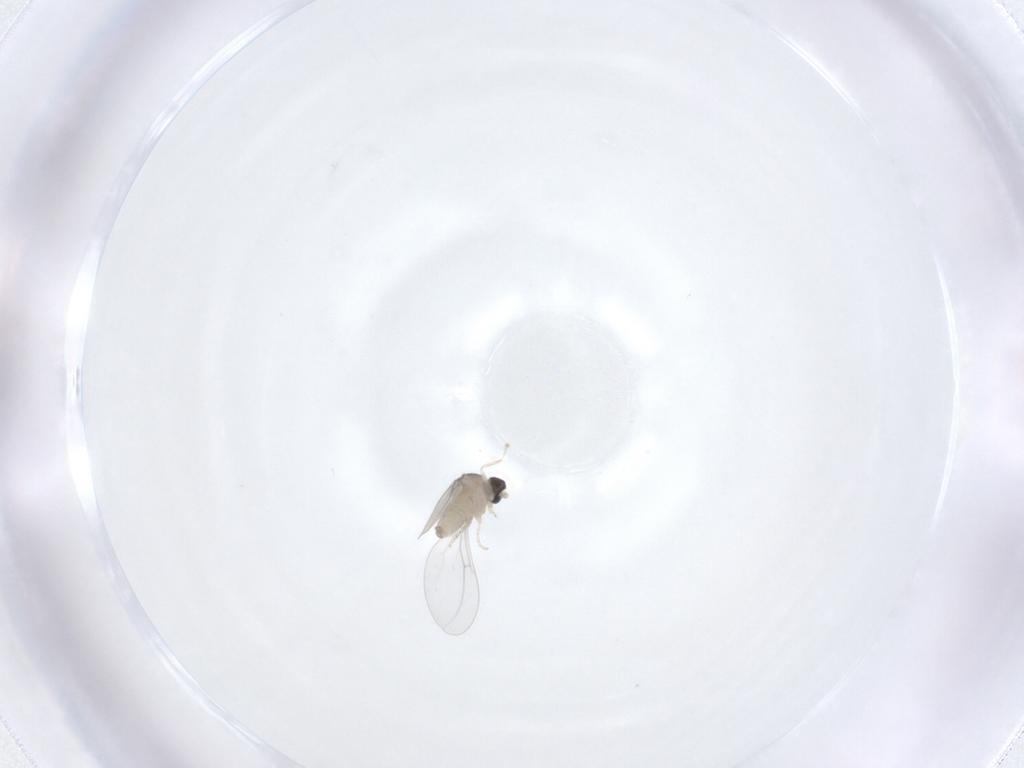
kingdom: Animalia
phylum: Arthropoda
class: Insecta
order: Diptera
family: Cecidomyiidae
